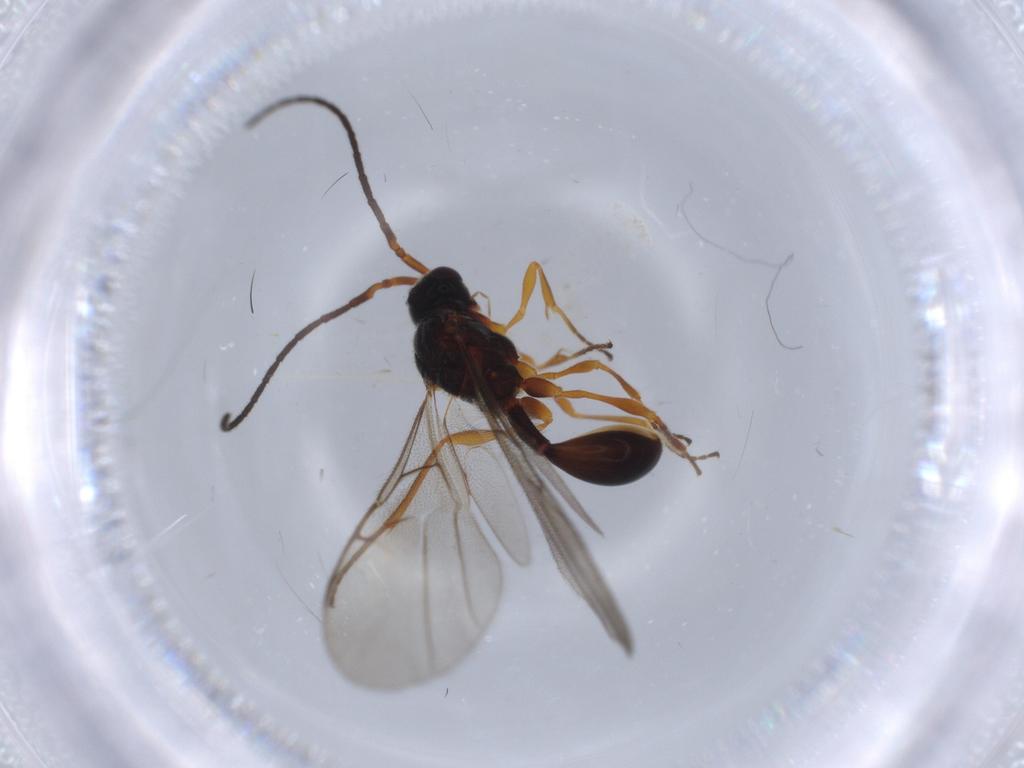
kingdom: Animalia
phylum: Arthropoda
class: Insecta
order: Hymenoptera
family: Diapriidae
